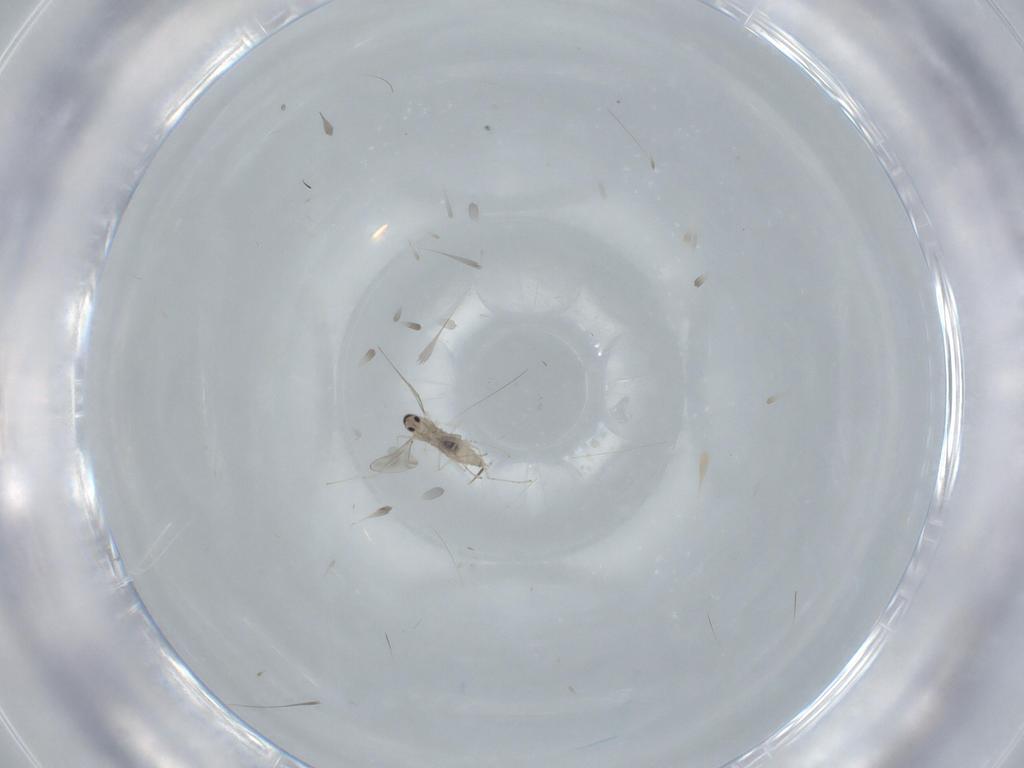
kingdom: Animalia
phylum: Arthropoda
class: Insecta
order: Diptera
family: Cecidomyiidae
